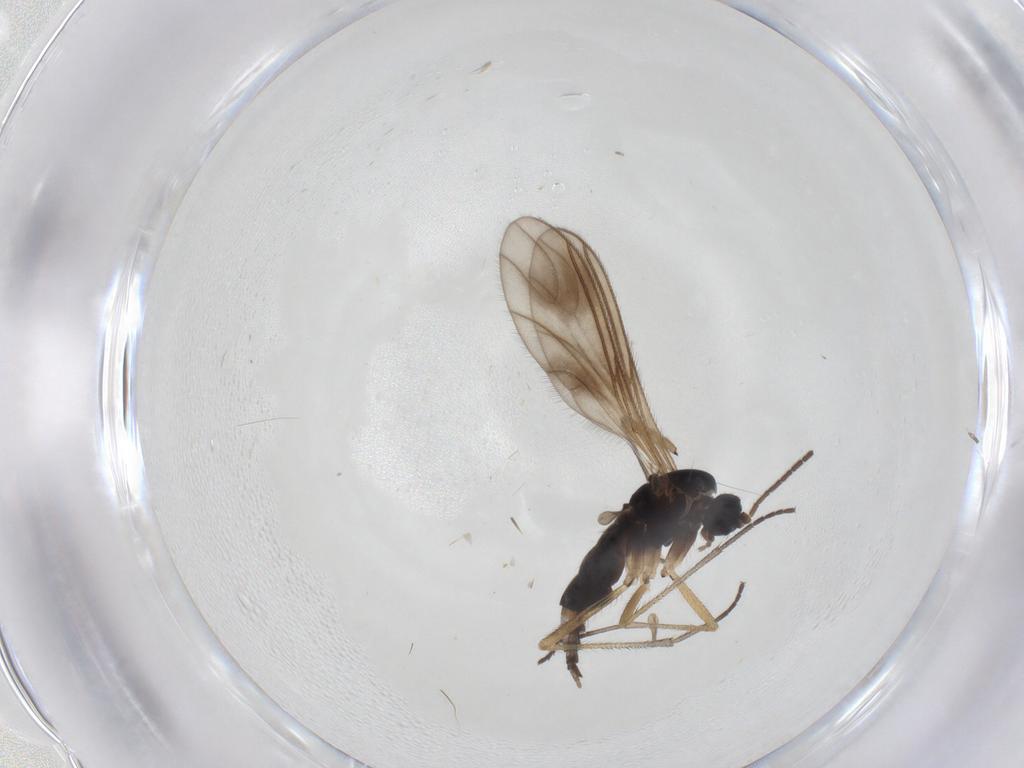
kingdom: Animalia
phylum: Arthropoda
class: Insecta
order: Diptera
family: Sciaridae
